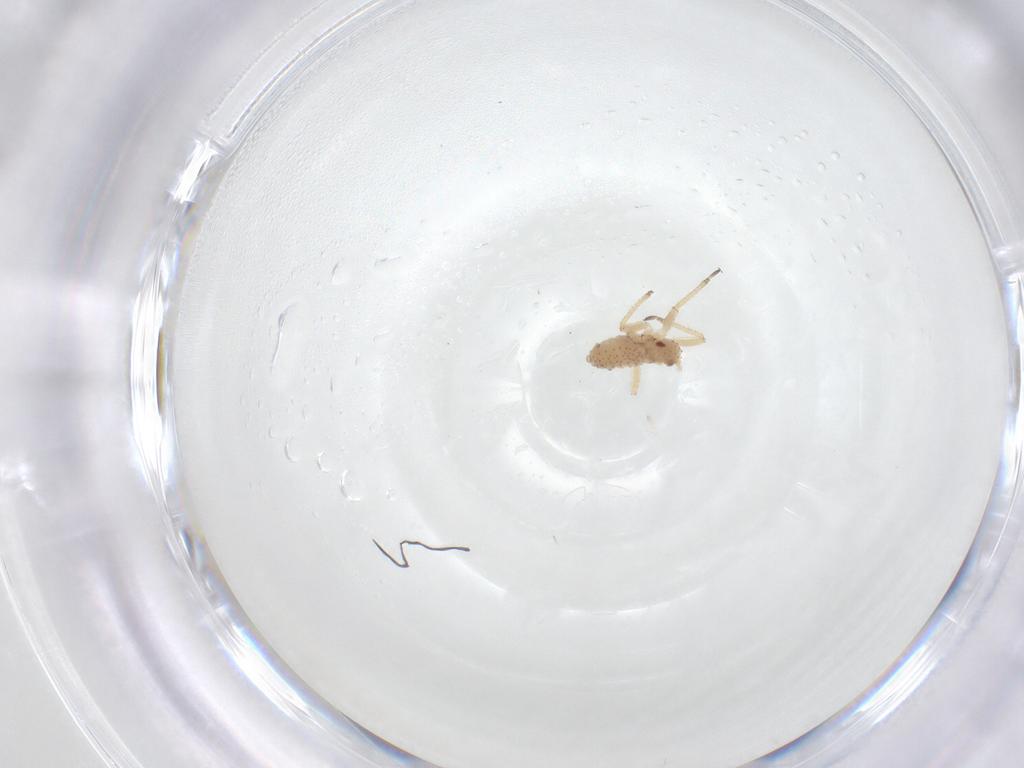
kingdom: Animalia
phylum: Arthropoda
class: Insecta
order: Hemiptera
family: Aphididae
